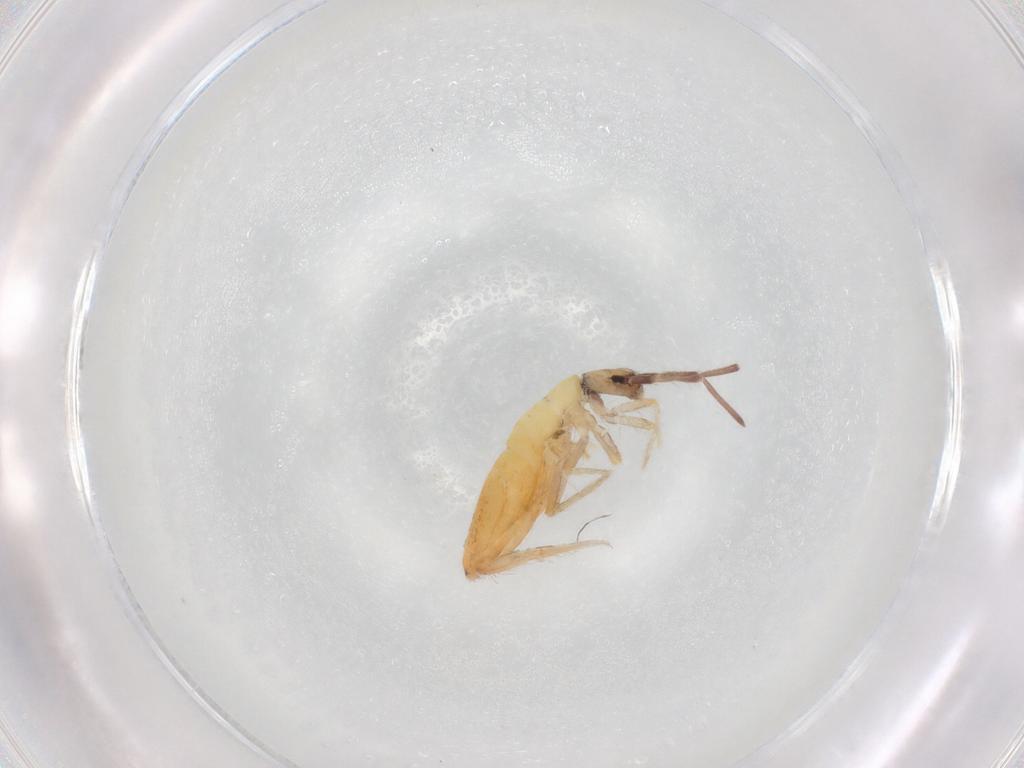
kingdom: Animalia
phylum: Arthropoda
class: Collembola
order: Entomobryomorpha
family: Entomobryidae
